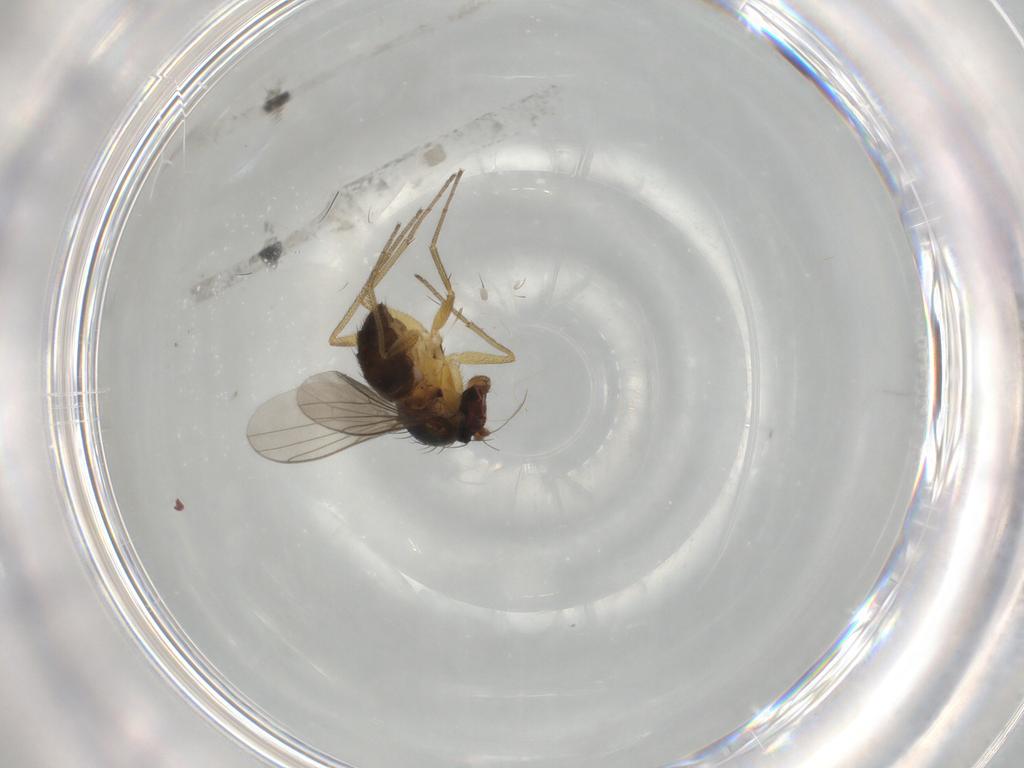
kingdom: Animalia
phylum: Arthropoda
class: Insecta
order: Diptera
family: Dolichopodidae
